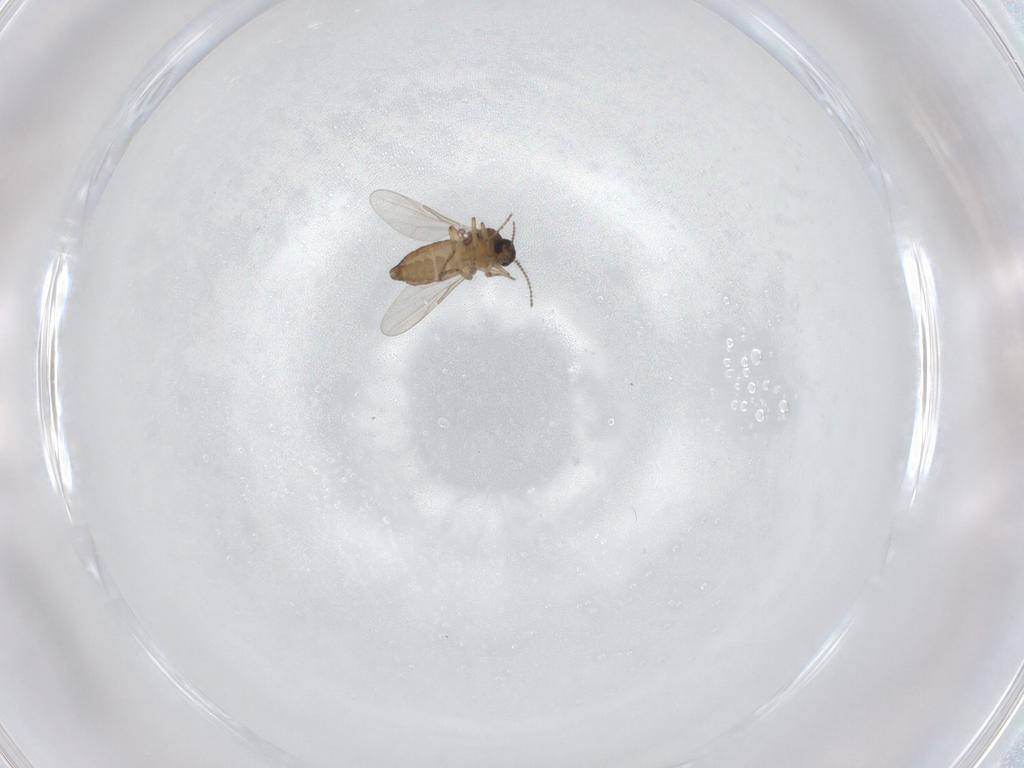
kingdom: Animalia
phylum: Arthropoda
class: Insecta
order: Diptera
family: Ceratopogonidae
